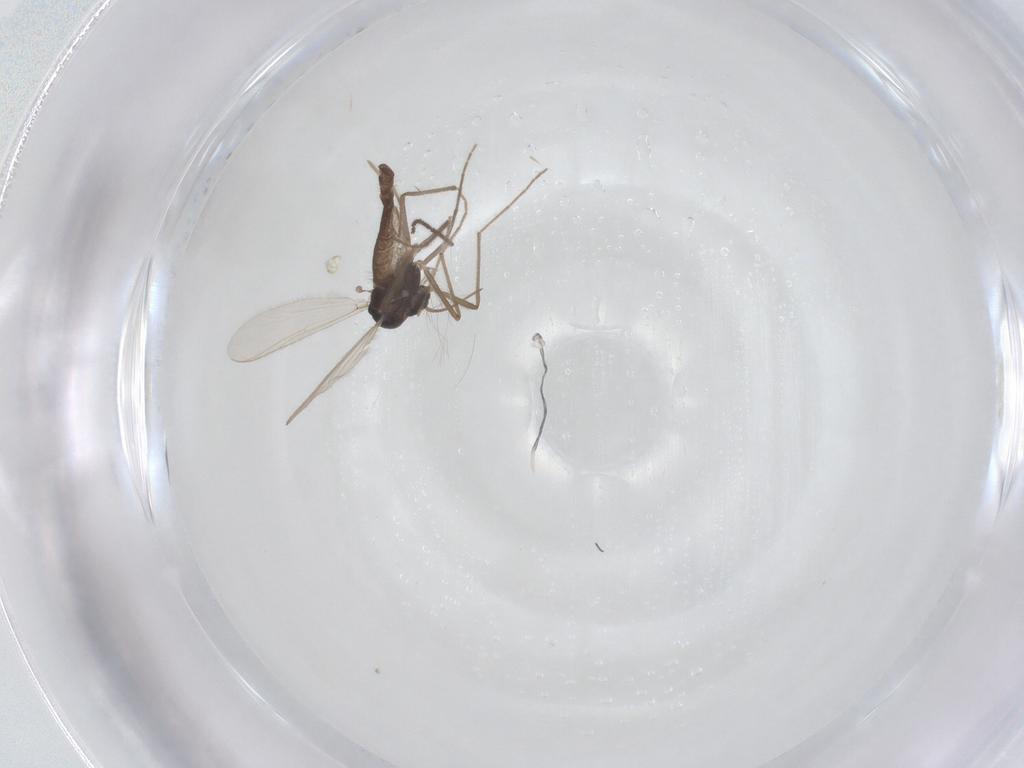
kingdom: Animalia
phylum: Arthropoda
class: Insecta
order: Diptera
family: Chironomidae
